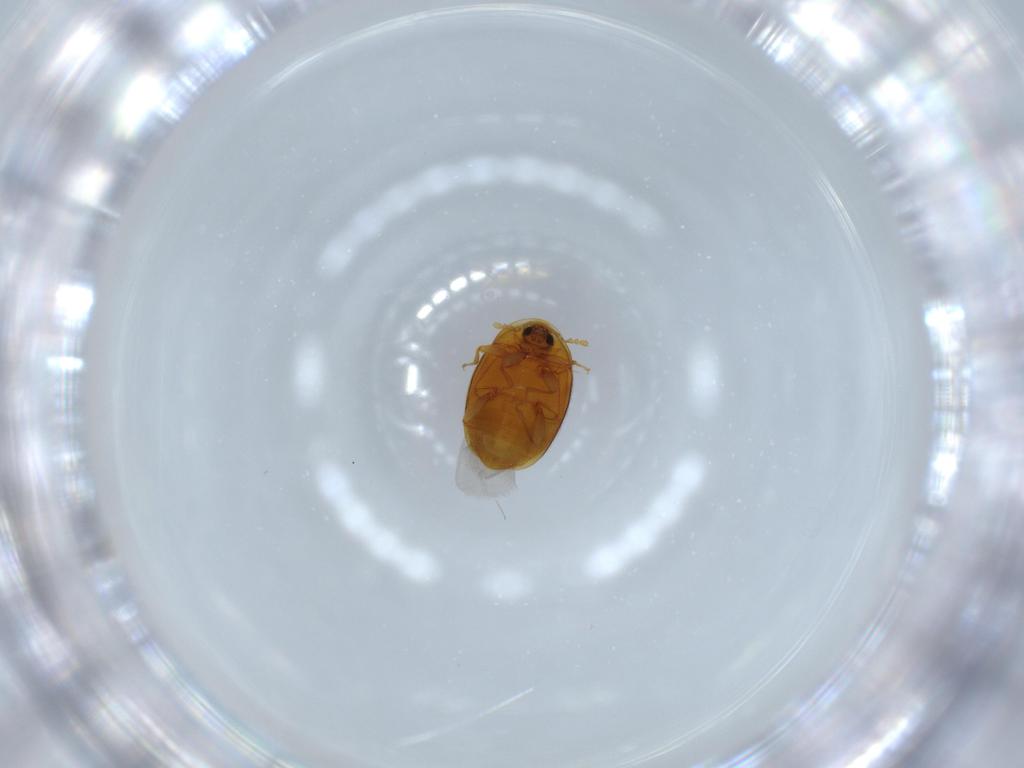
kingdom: Animalia
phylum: Arthropoda
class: Insecta
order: Coleoptera
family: Corylophidae
